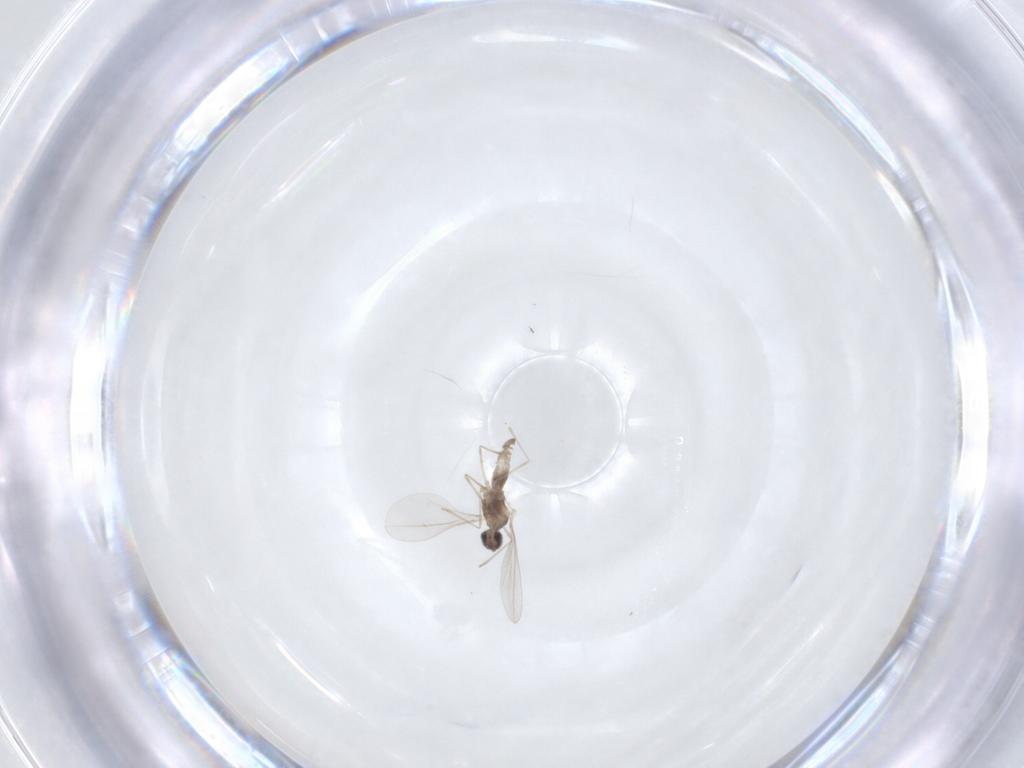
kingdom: Animalia
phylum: Arthropoda
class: Insecta
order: Diptera
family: Chironomidae
